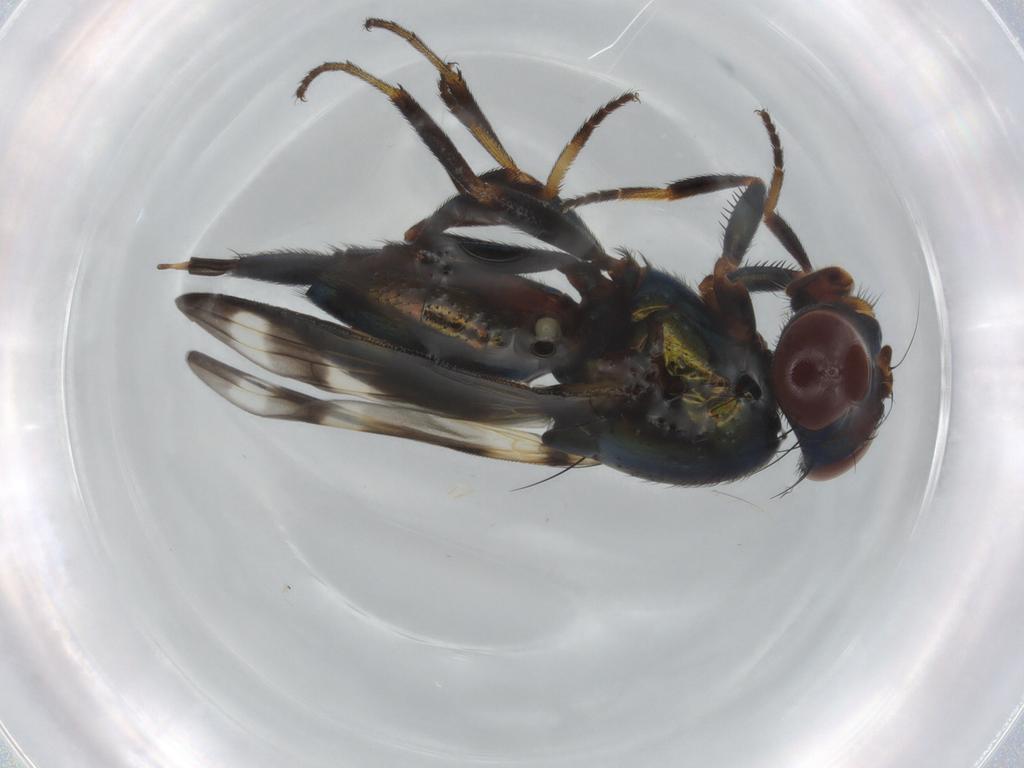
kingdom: Animalia
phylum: Arthropoda
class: Insecta
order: Diptera
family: Ulidiidae
